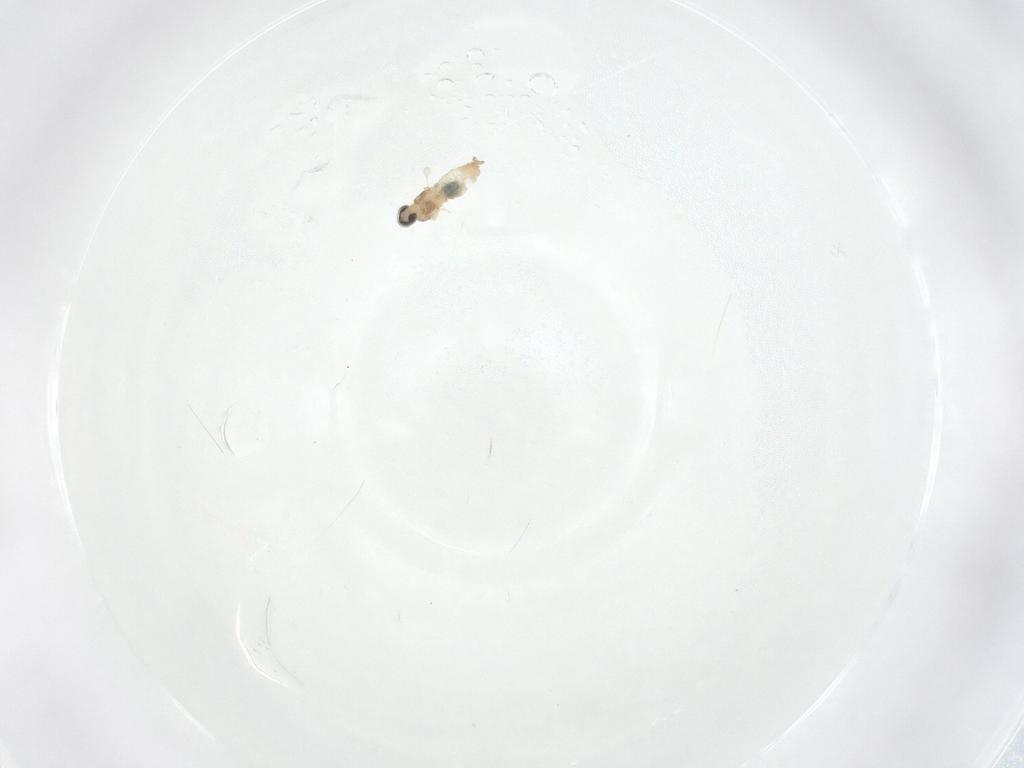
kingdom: Animalia
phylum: Arthropoda
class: Insecta
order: Diptera
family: Cecidomyiidae
